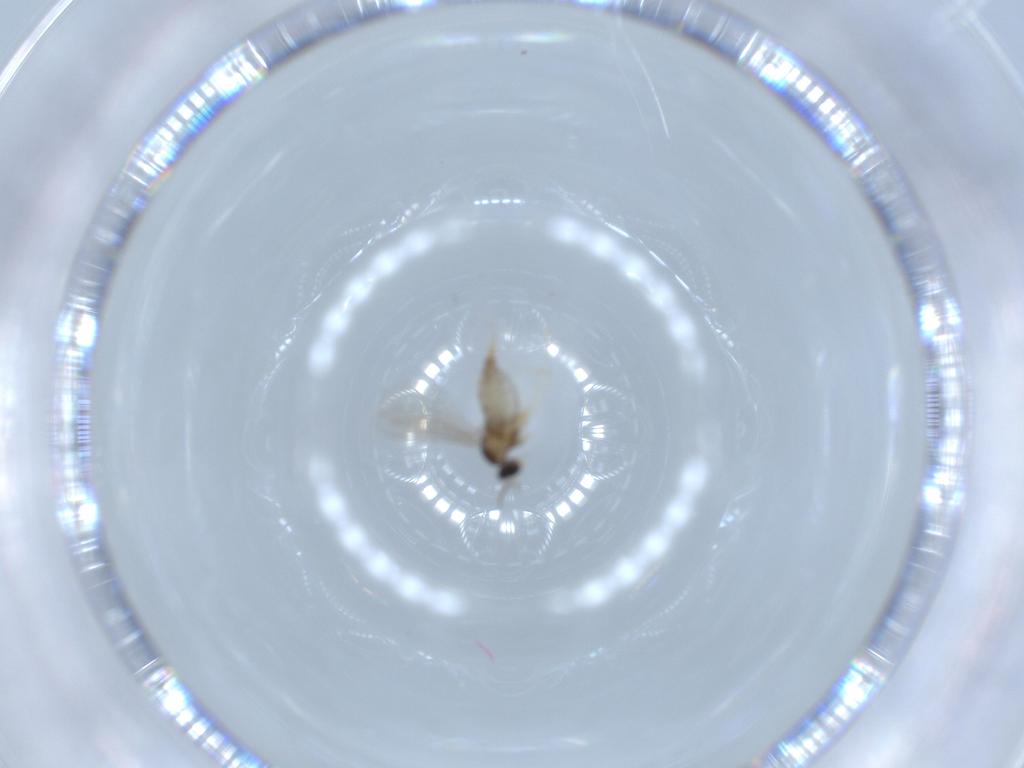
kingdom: Animalia
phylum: Arthropoda
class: Insecta
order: Diptera
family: Cecidomyiidae
